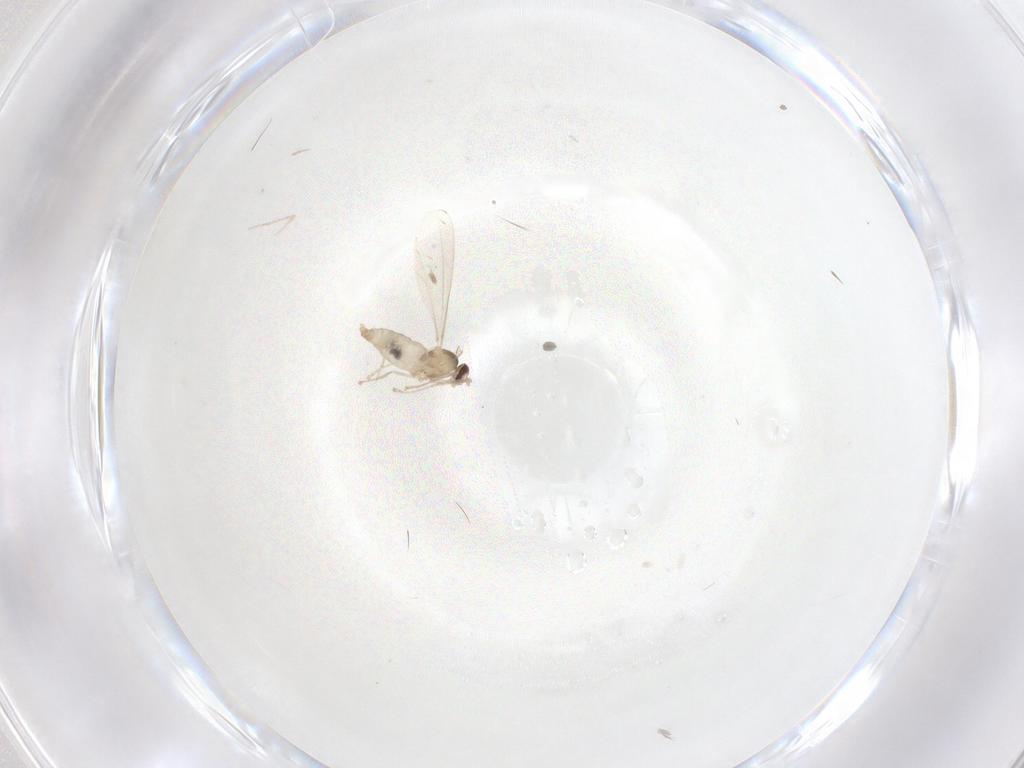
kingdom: Animalia
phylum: Arthropoda
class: Insecta
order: Diptera
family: Cecidomyiidae
